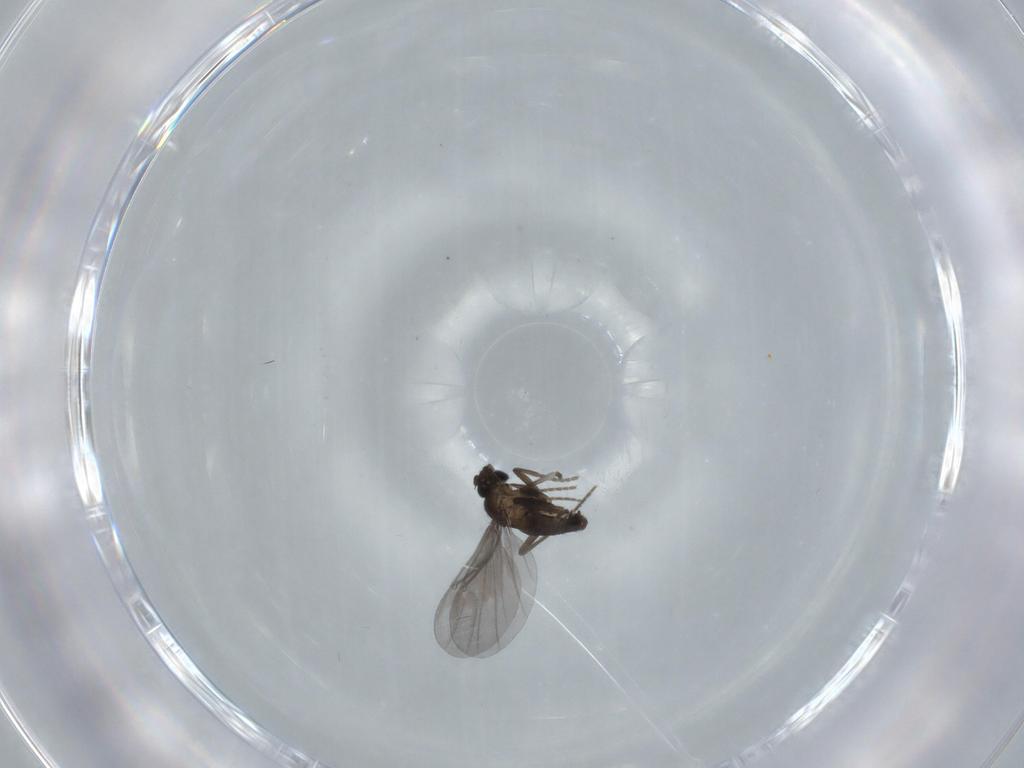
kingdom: Animalia
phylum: Arthropoda
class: Insecta
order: Diptera
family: Phoridae
